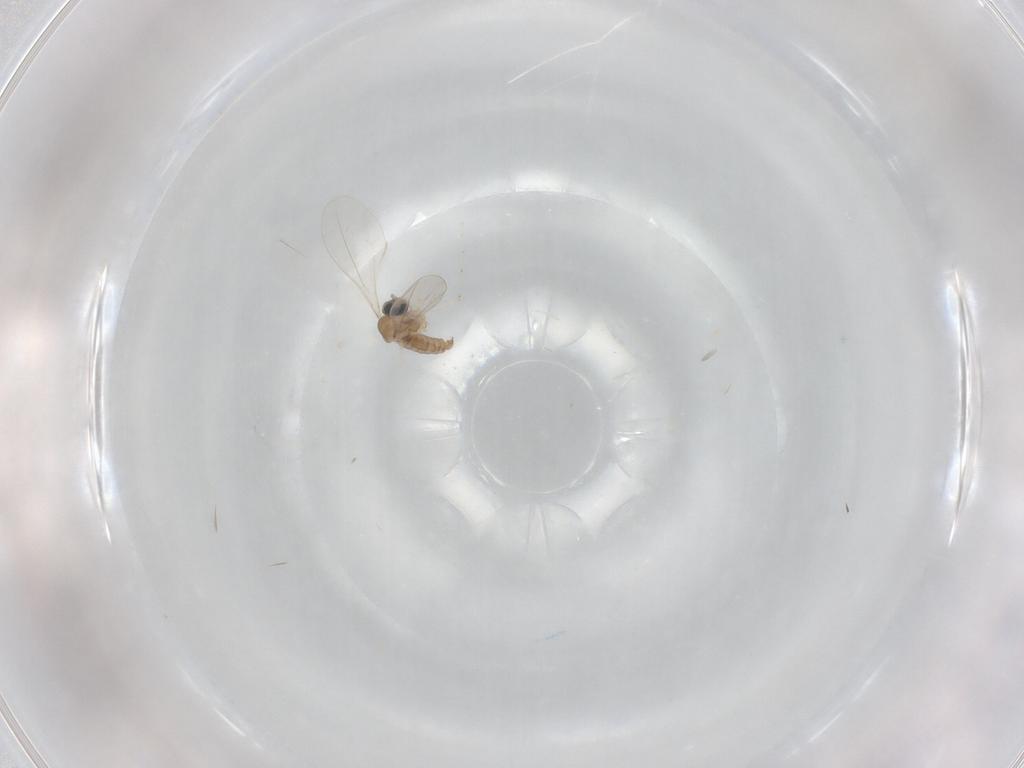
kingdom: Animalia
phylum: Arthropoda
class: Insecta
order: Diptera
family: Cecidomyiidae
